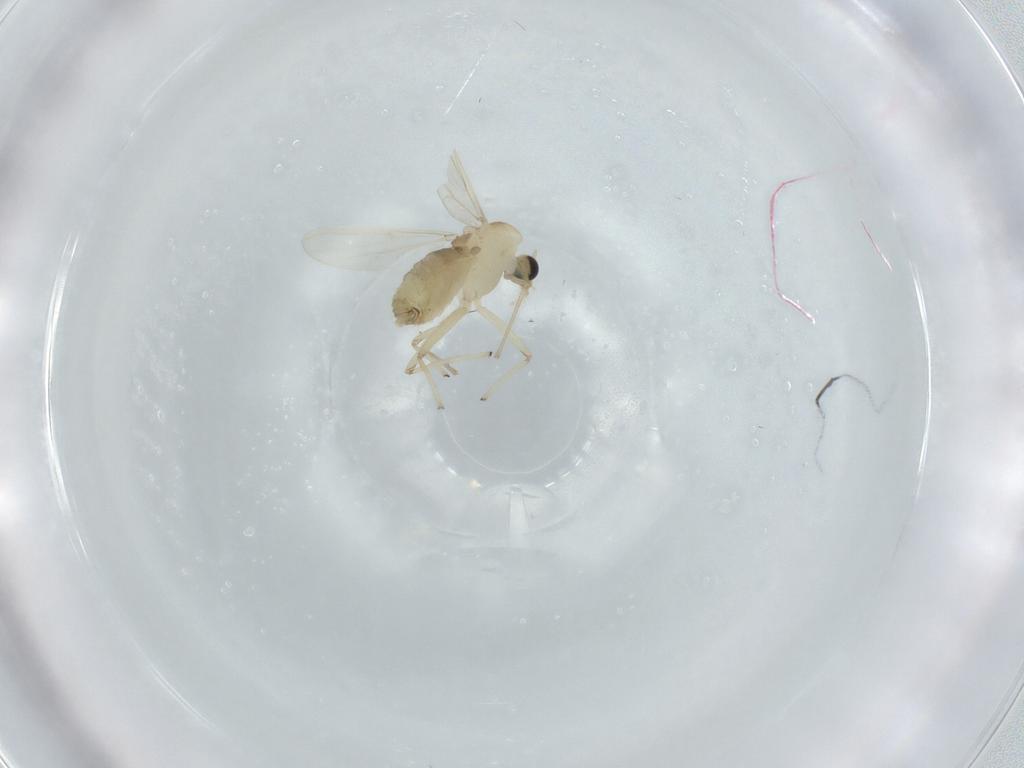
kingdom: Animalia
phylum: Arthropoda
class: Insecta
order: Diptera
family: Chironomidae
